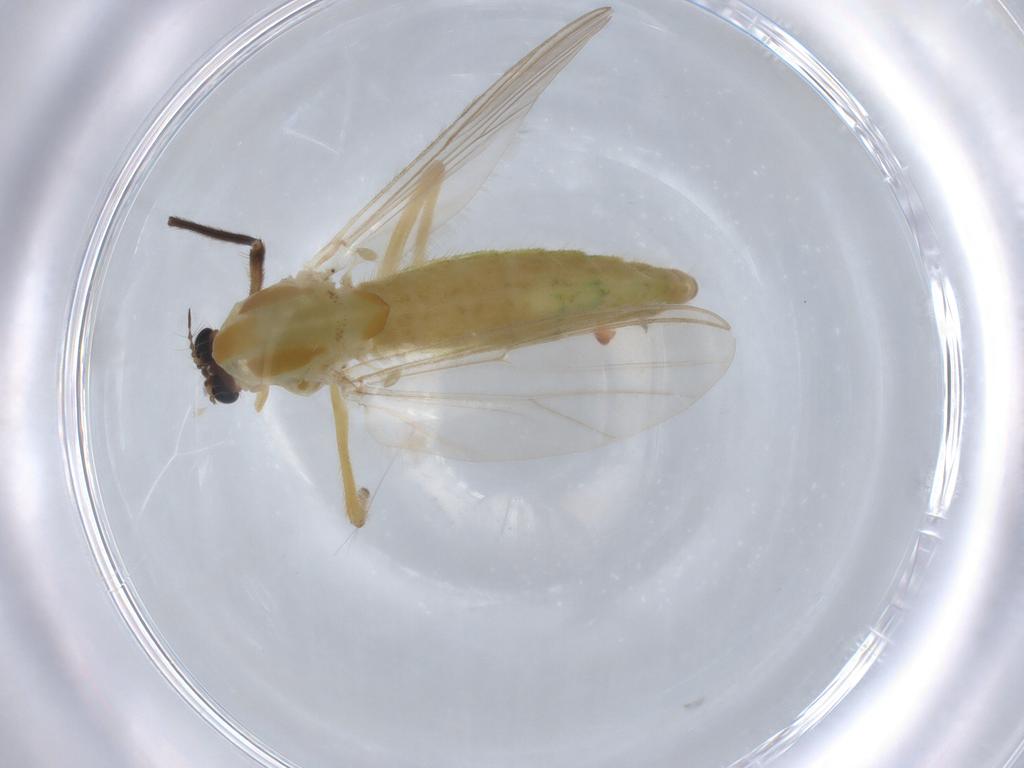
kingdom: Animalia
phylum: Arthropoda
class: Insecta
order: Diptera
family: Chironomidae
